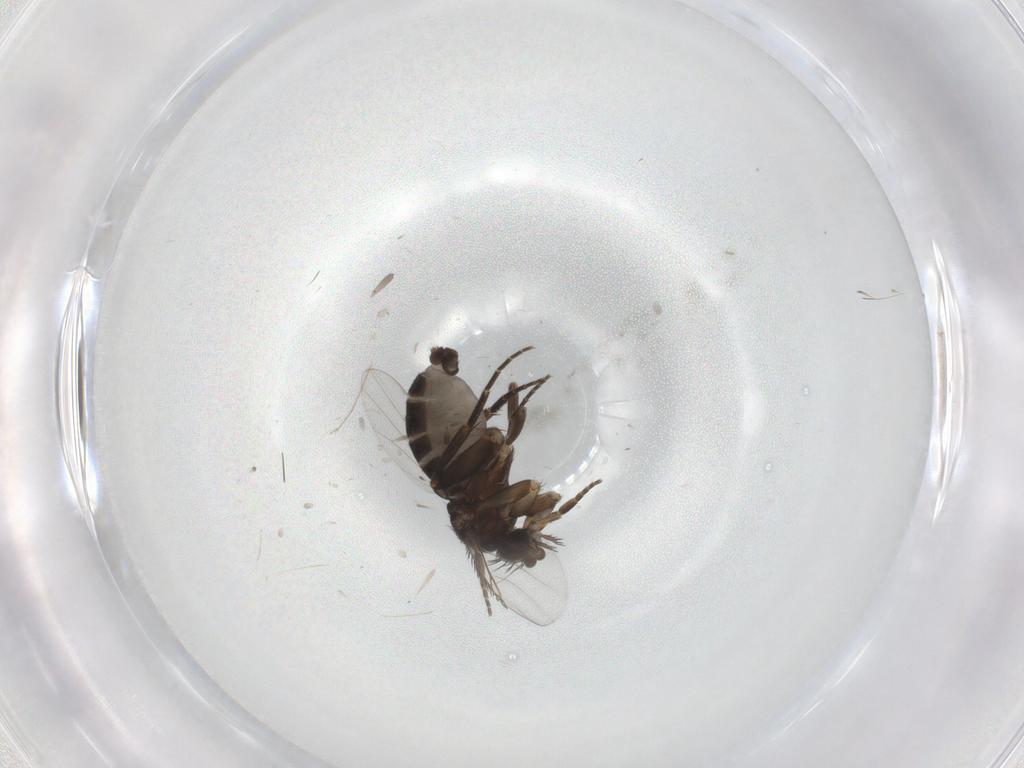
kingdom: Animalia
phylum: Arthropoda
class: Insecta
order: Diptera
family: Phoridae
